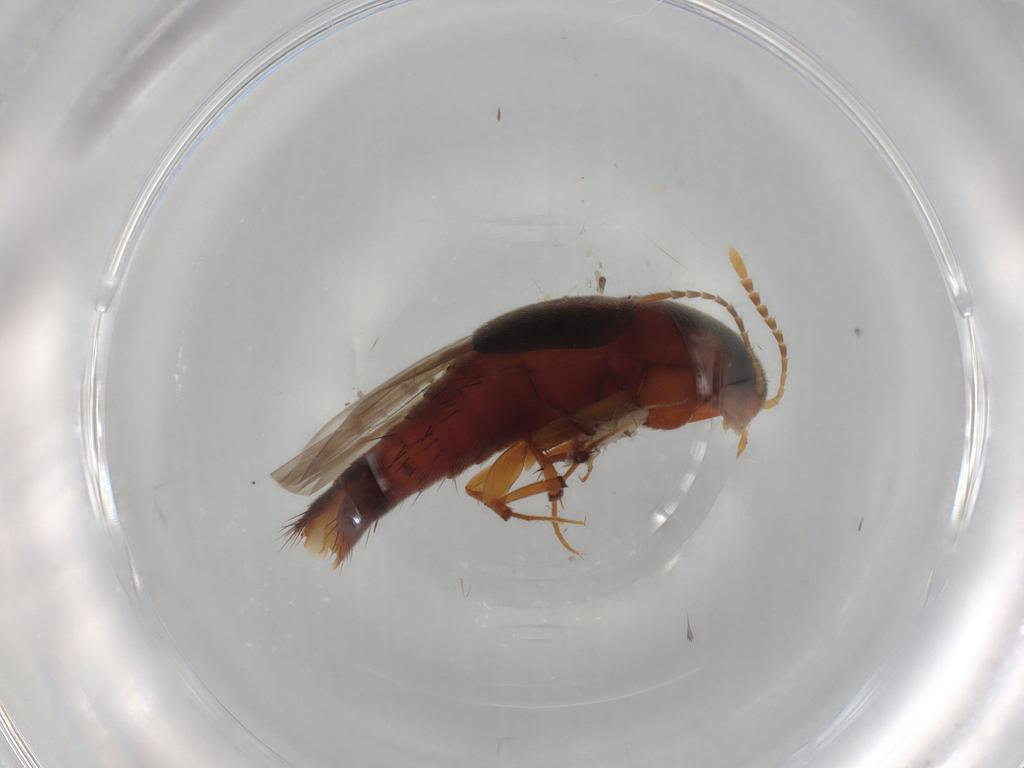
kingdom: Animalia
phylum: Arthropoda
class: Insecta
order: Coleoptera
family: Staphylinidae
